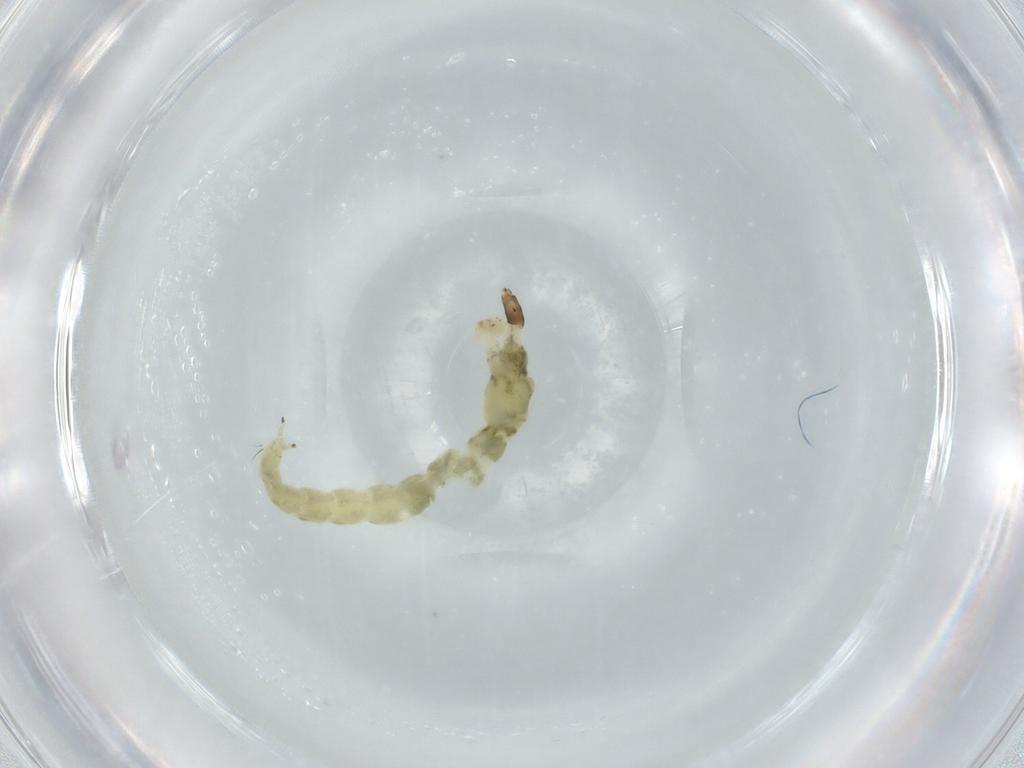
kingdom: Animalia
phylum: Arthropoda
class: Insecta
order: Diptera
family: Chironomidae
